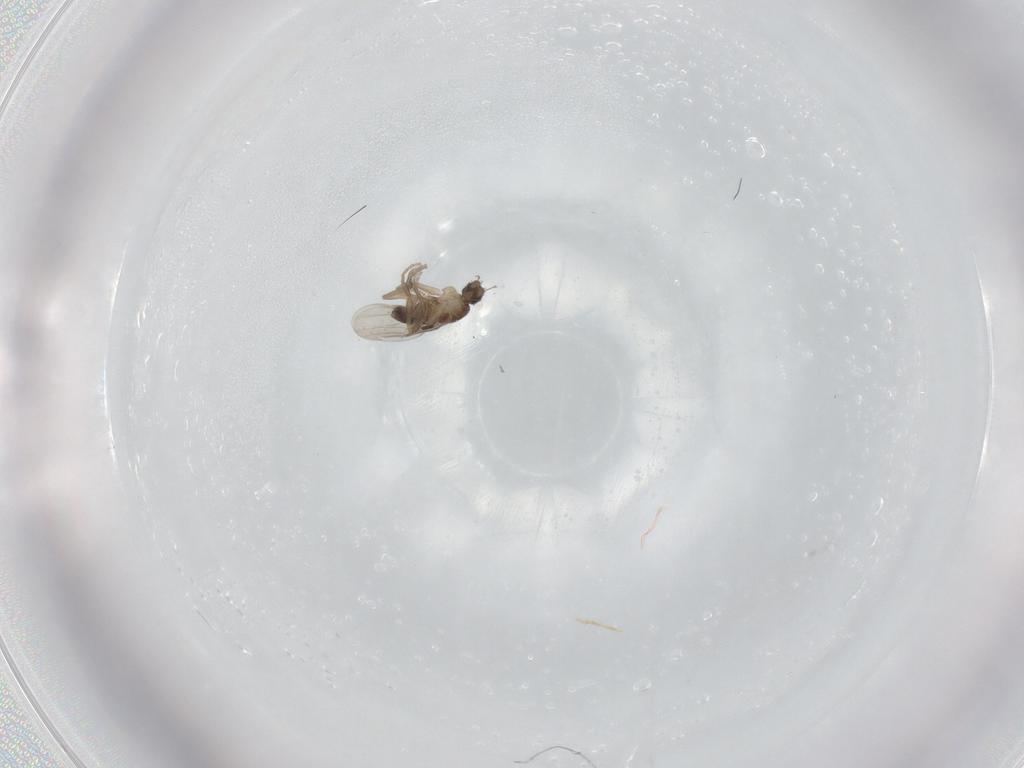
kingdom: Animalia
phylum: Arthropoda
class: Insecta
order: Diptera
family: Cecidomyiidae
